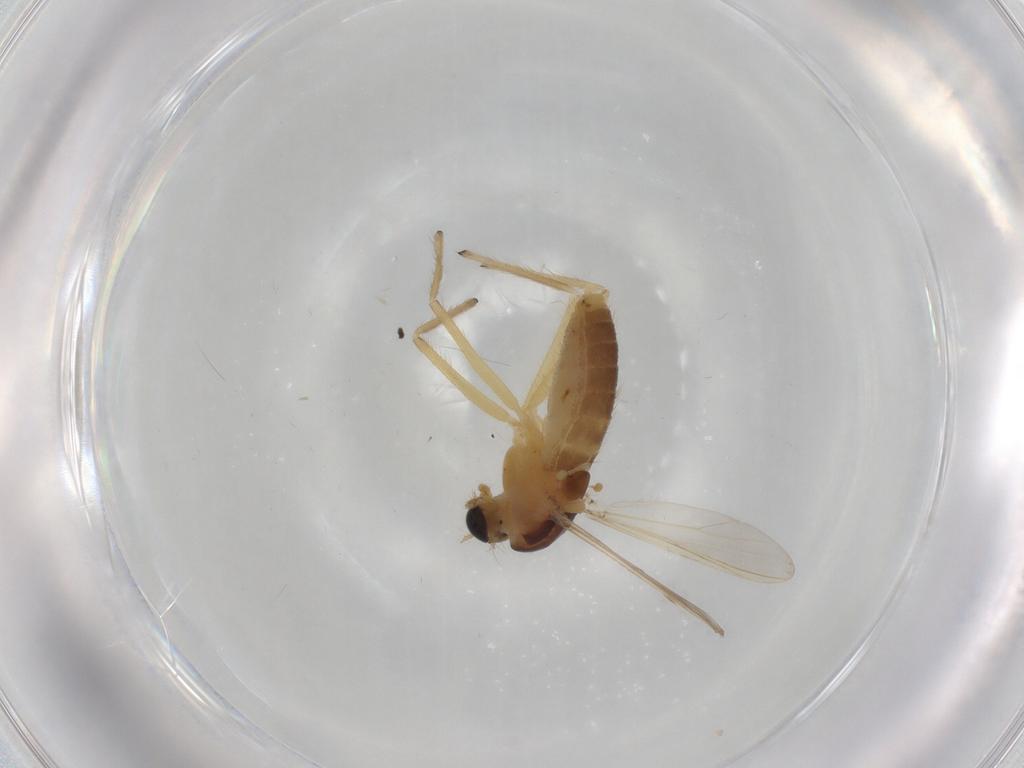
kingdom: Animalia
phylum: Arthropoda
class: Insecta
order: Diptera
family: Chironomidae
